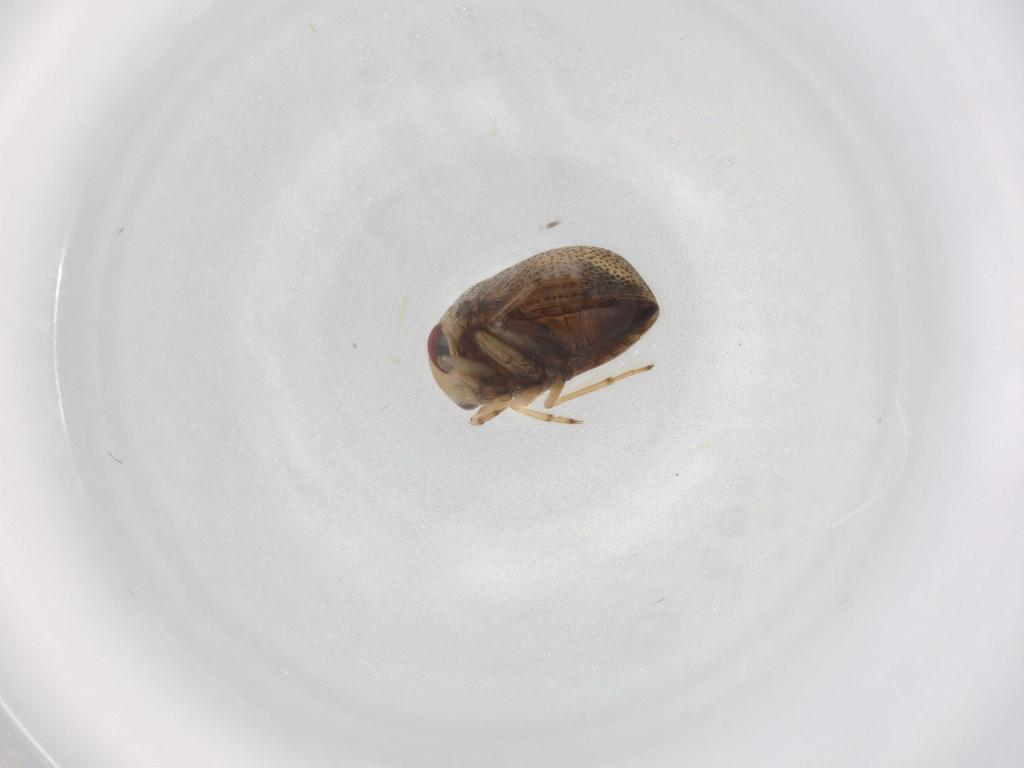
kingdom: Animalia
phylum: Arthropoda
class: Insecta
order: Hemiptera
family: Pleidae
